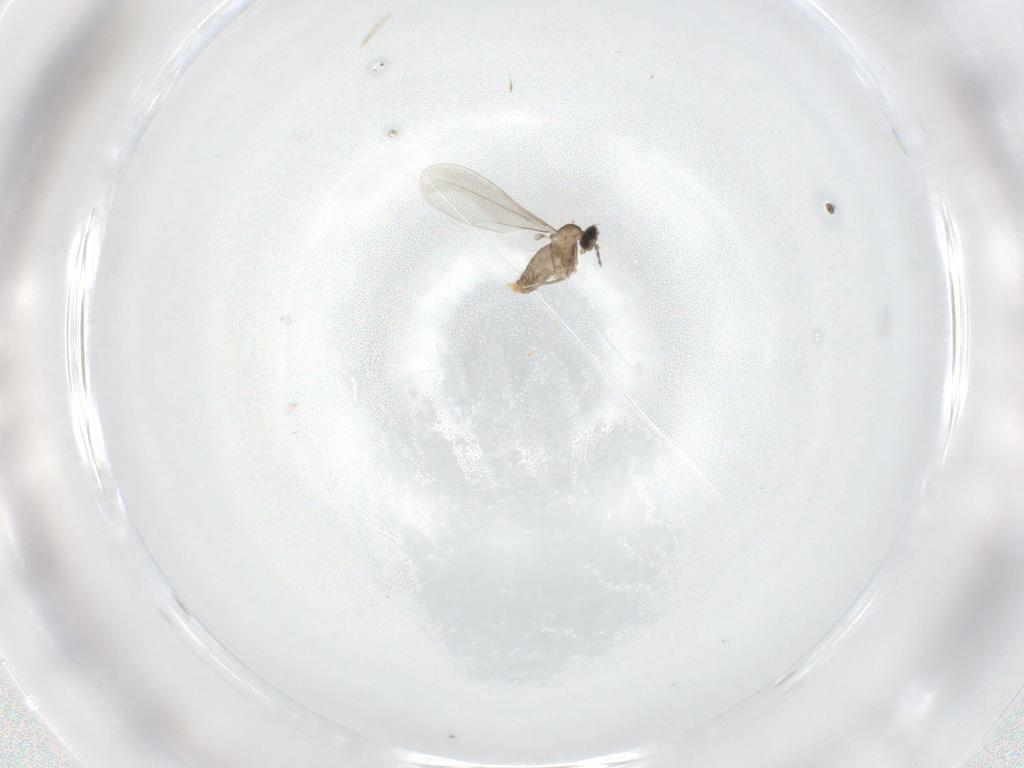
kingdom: Animalia
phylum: Arthropoda
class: Insecta
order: Diptera
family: Cecidomyiidae
